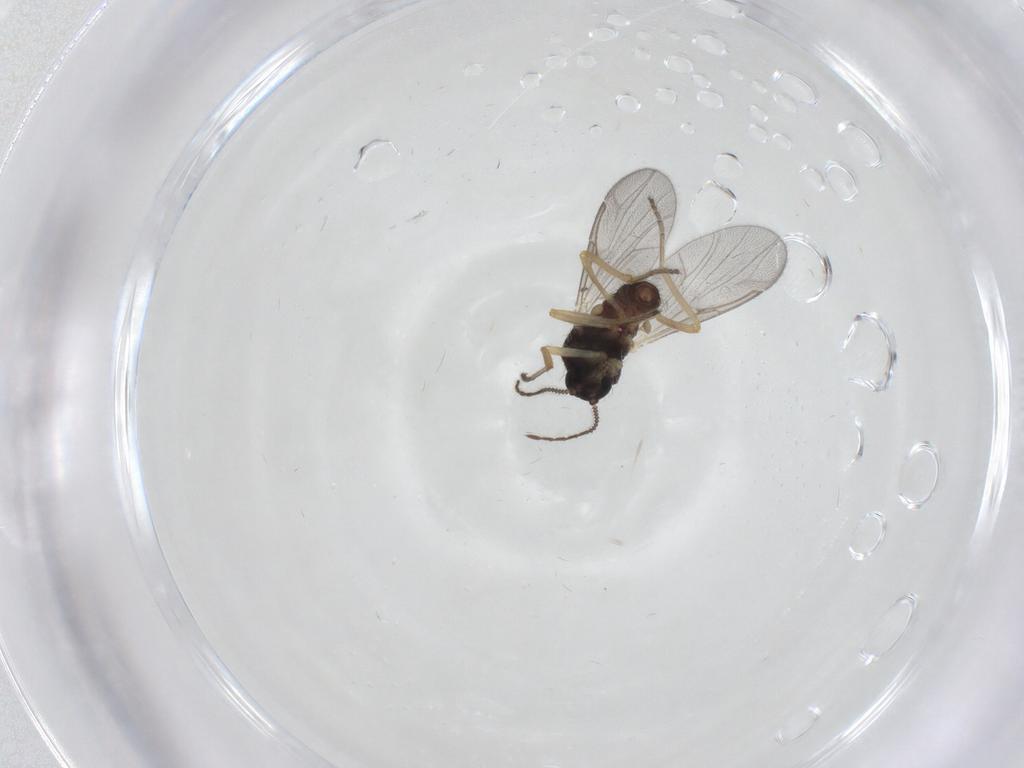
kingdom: Animalia
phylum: Arthropoda
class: Insecta
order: Diptera
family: Ceratopogonidae
